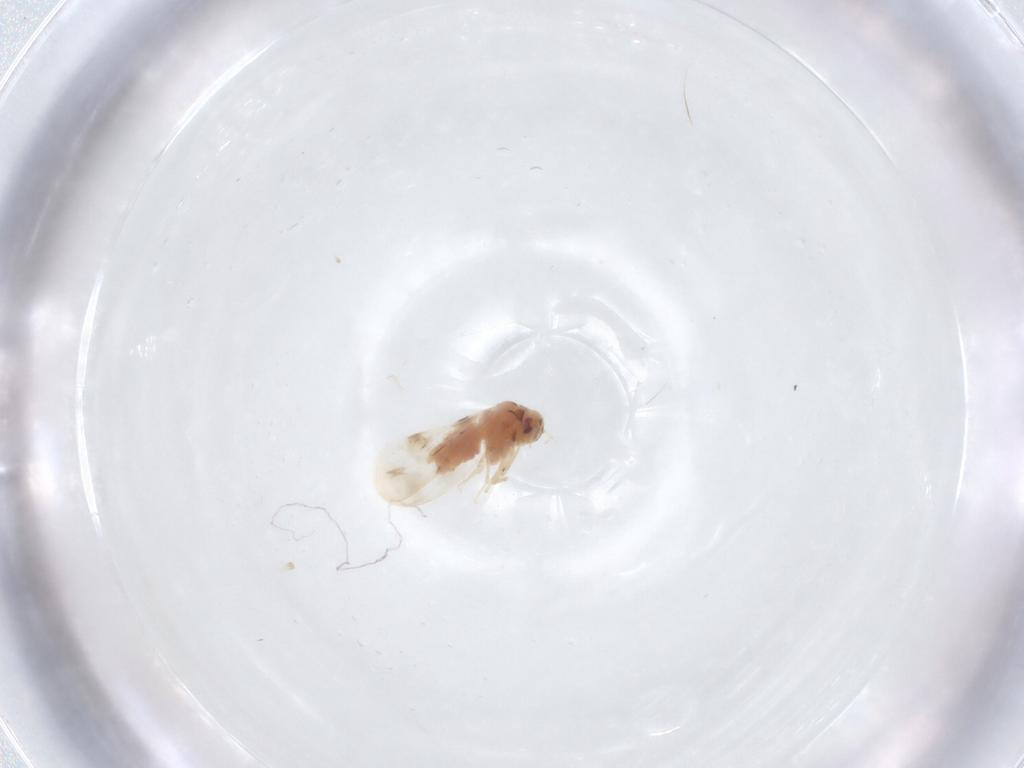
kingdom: Animalia
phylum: Arthropoda
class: Insecta
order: Hemiptera
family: Aleyrodidae
